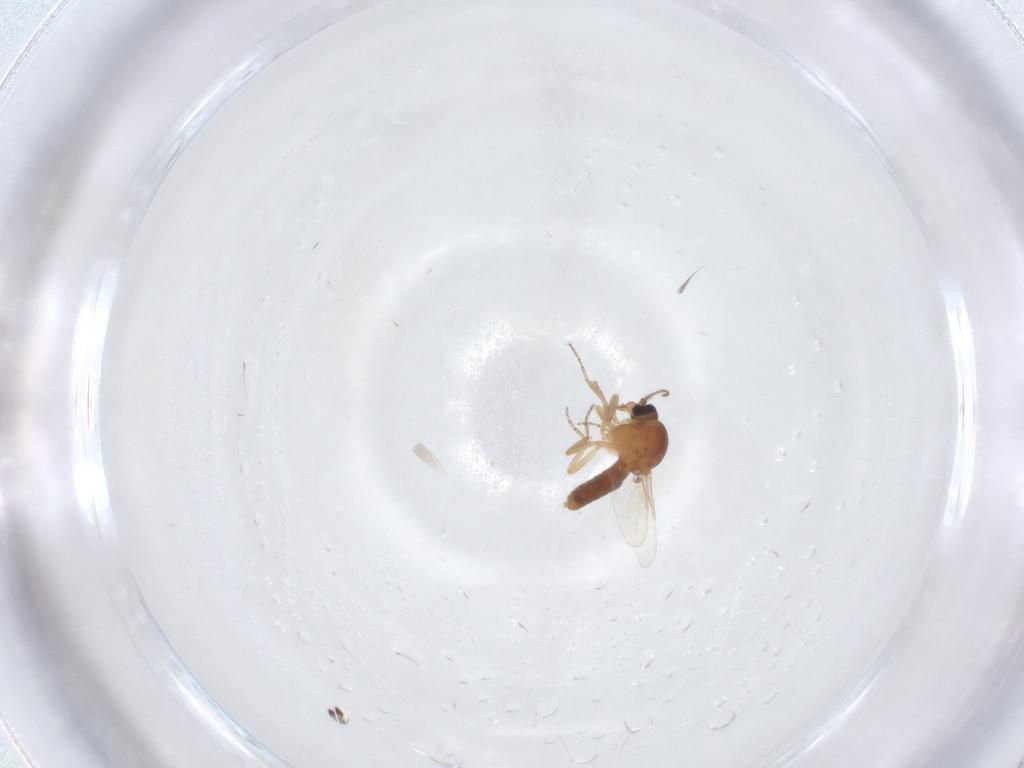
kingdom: Animalia
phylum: Arthropoda
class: Insecta
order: Diptera
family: Ceratopogonidae
